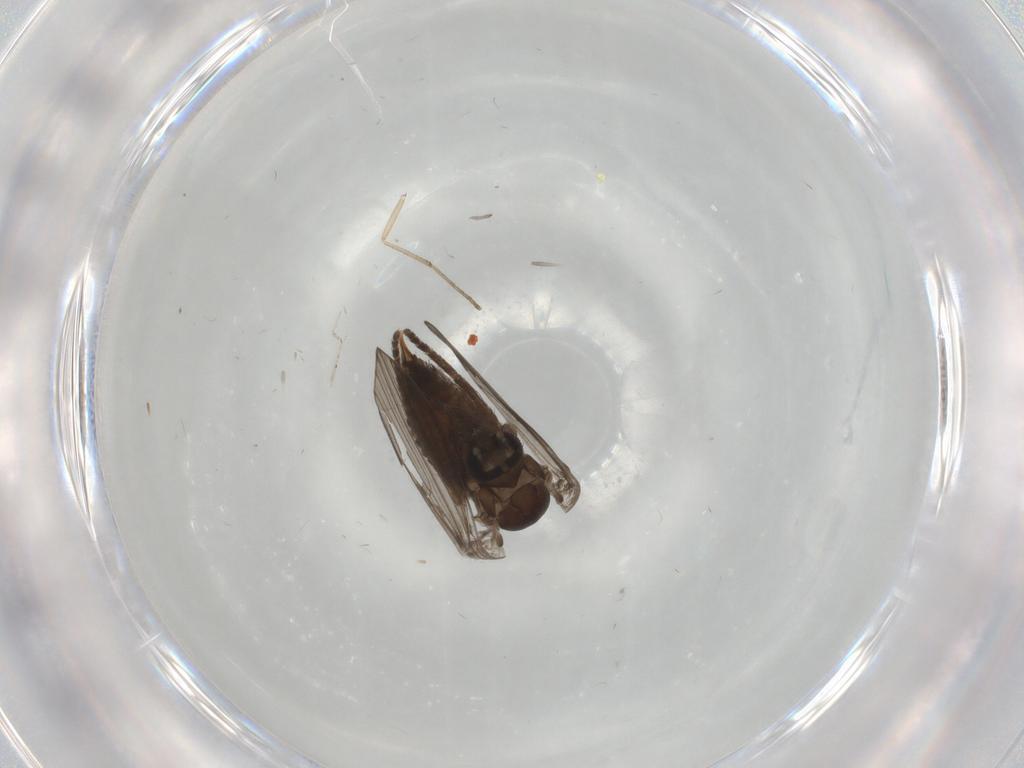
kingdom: Animalia
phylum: Arthropoda
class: Insecta
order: Diptera
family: Psychodidae
